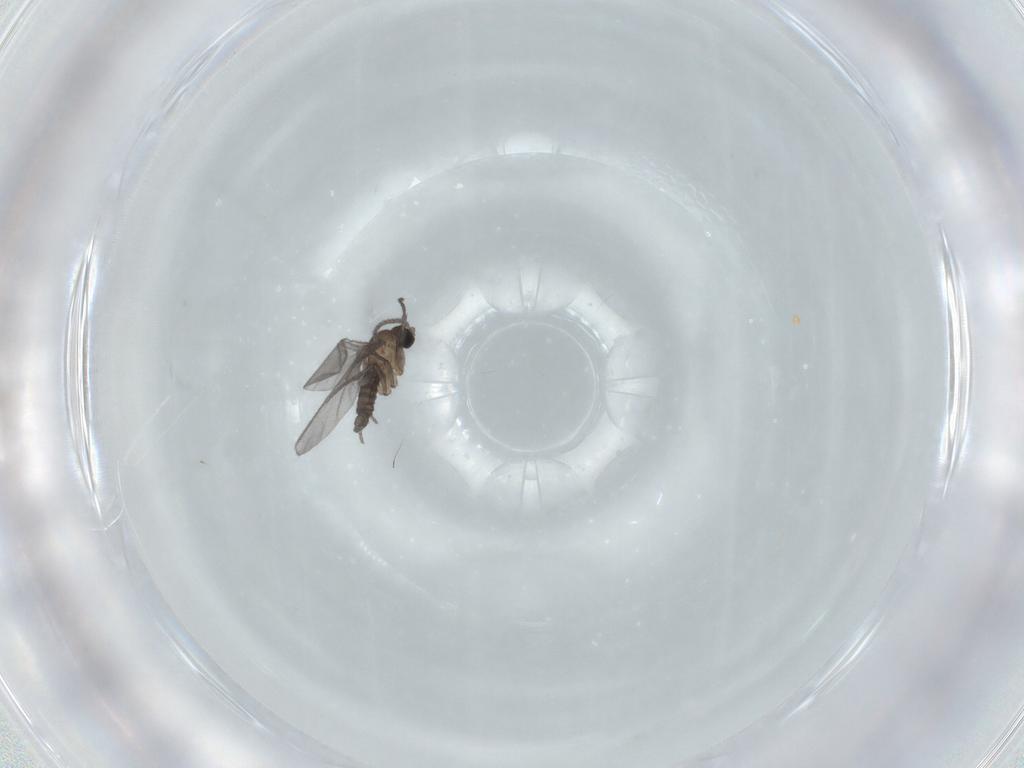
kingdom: Animalia
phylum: Arthropoda
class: Insecta
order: Diptera
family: Sciaridae
